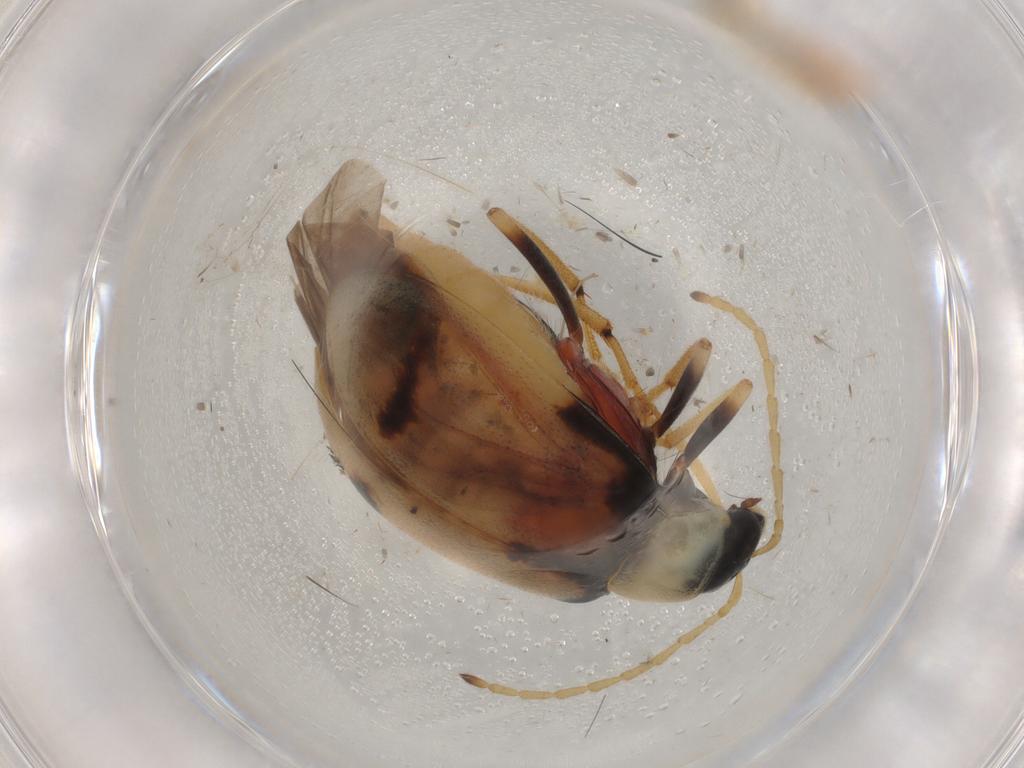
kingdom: Animalia
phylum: Arthropoda
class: Insecta
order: Coleoptera
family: Chrysomelidae
